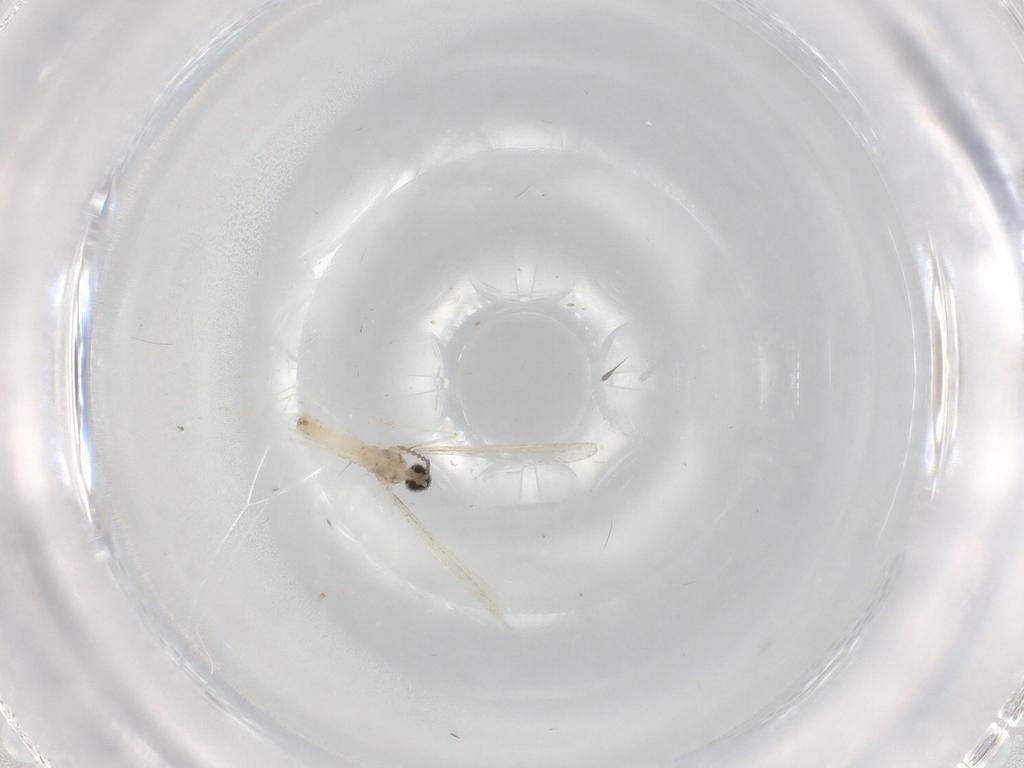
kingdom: Animalia
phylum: Arthropoda
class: Insecta
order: Diptera
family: Cecidomyiidae
